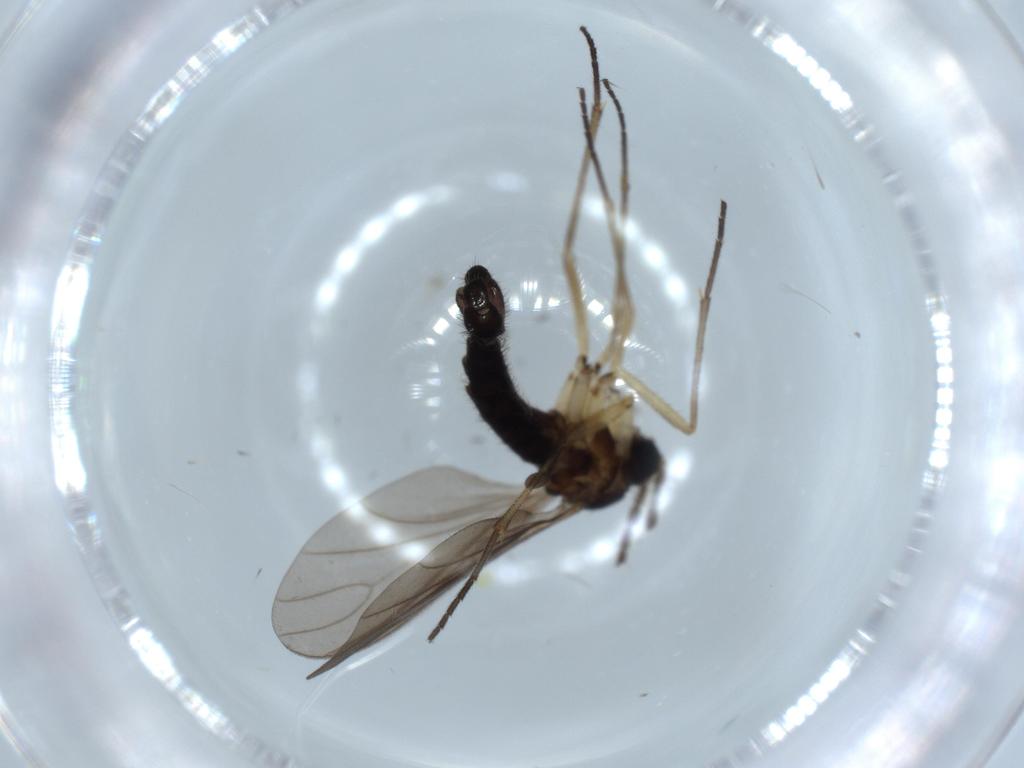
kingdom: Animalia
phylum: Arthropoda
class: Insecta
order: Diptera
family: Sciaridae
